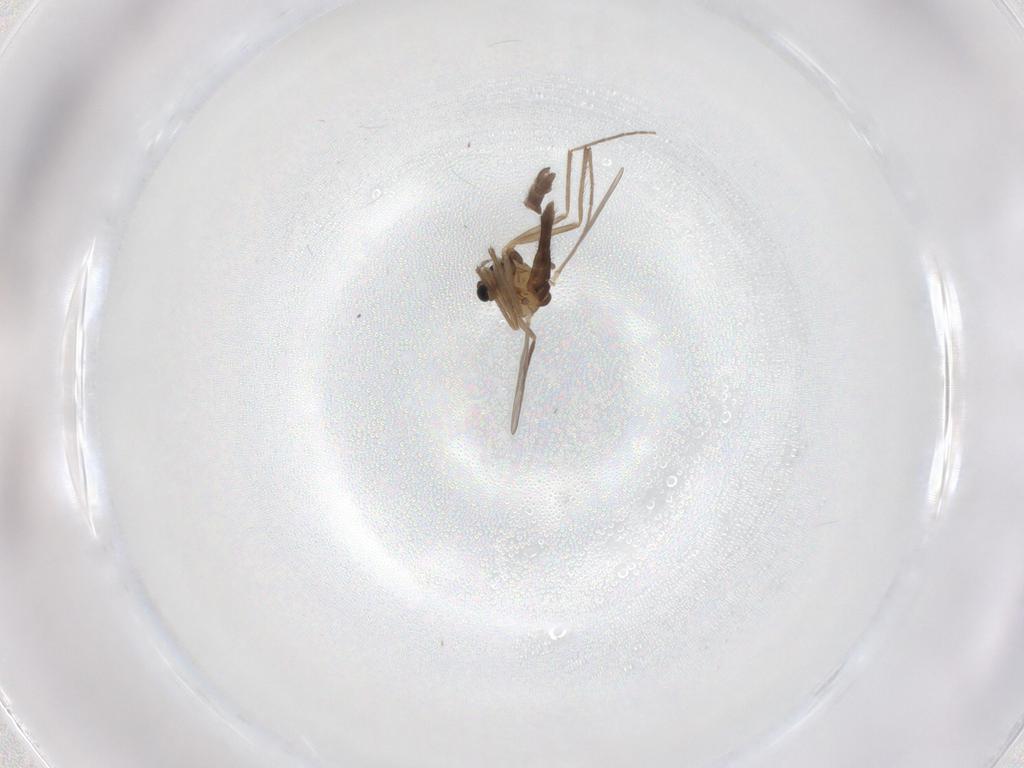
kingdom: Animalia
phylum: Arthropoda
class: Insecta
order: Diptera
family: Chironomidae
